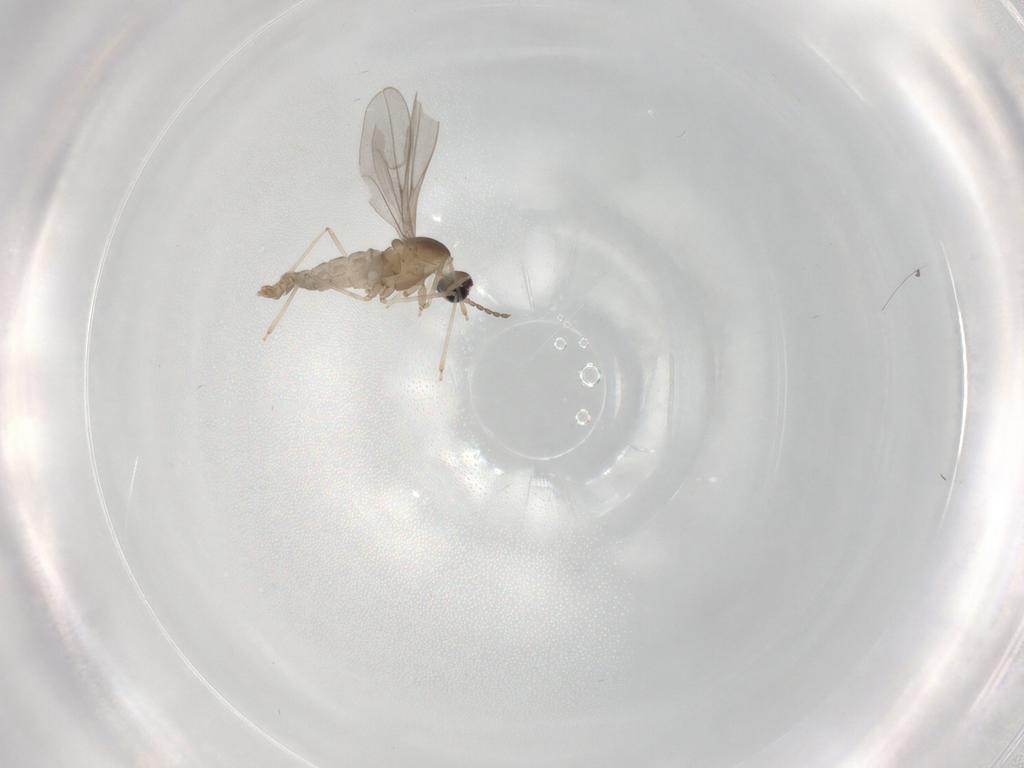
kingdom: Animalia
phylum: Arthropoda
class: Insecta
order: Diptera
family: Cecidomyiidae
